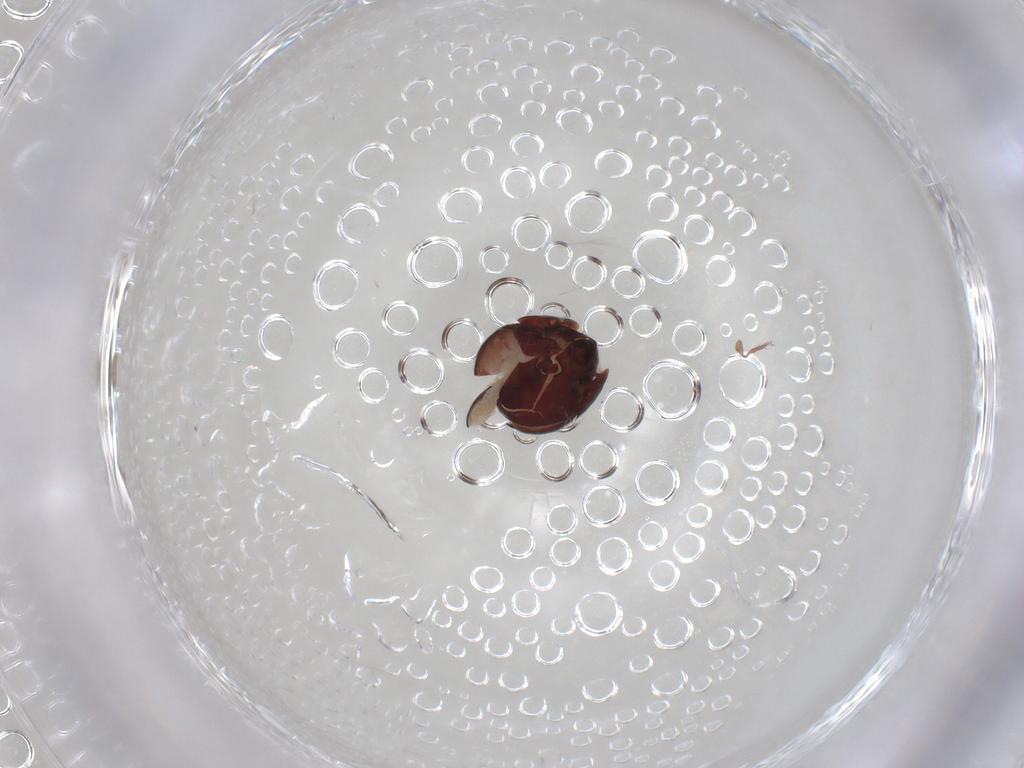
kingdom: Animalia
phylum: Arthropoda
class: Arachnida
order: Sarcoptiformes
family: Galumnidae
